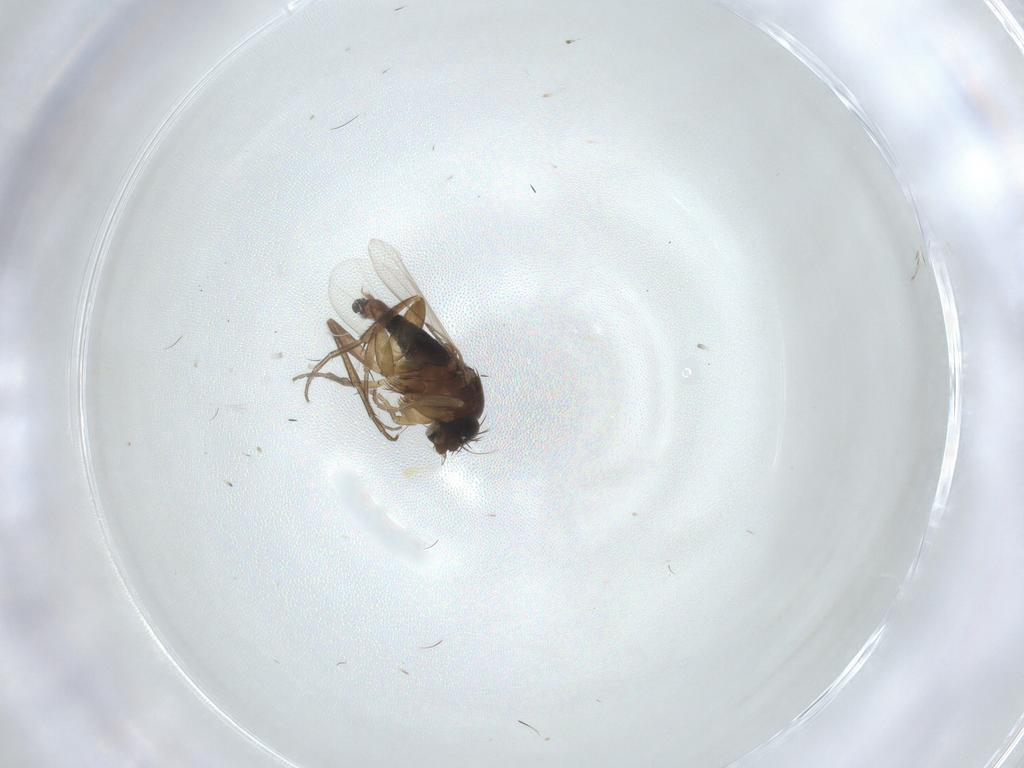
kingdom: Animalia
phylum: Arthropoda
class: Insecta
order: Diptera
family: Phoridae
